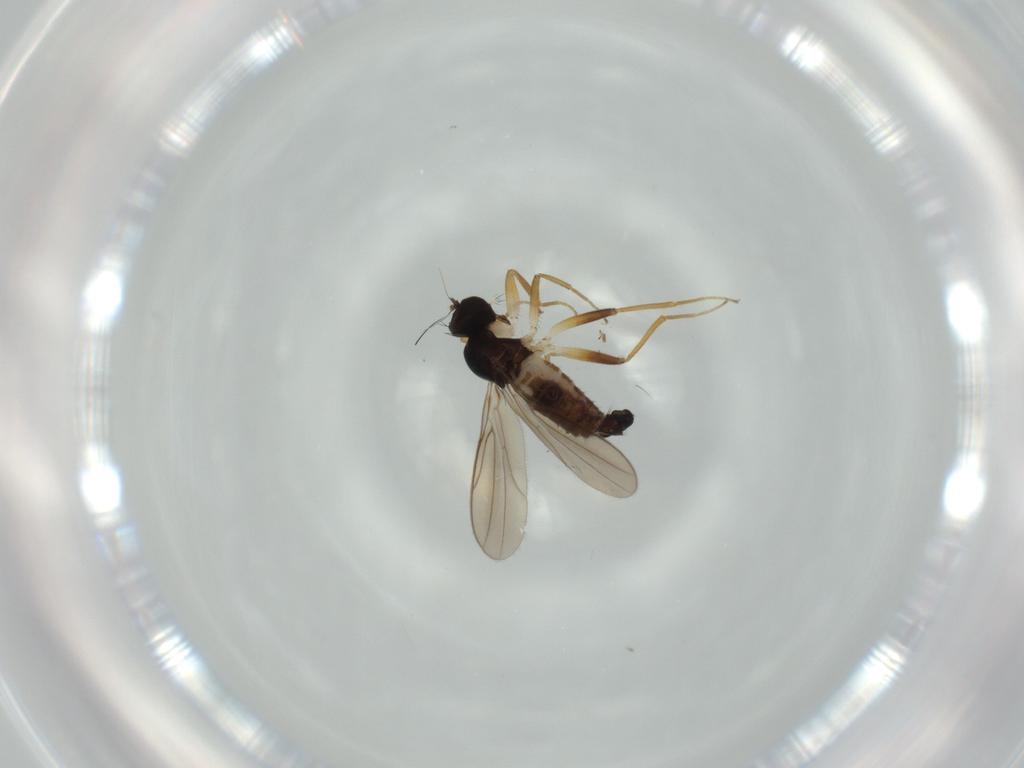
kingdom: Animalia
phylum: Arthropoda
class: Insecta
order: Diptera
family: Hybotidae
